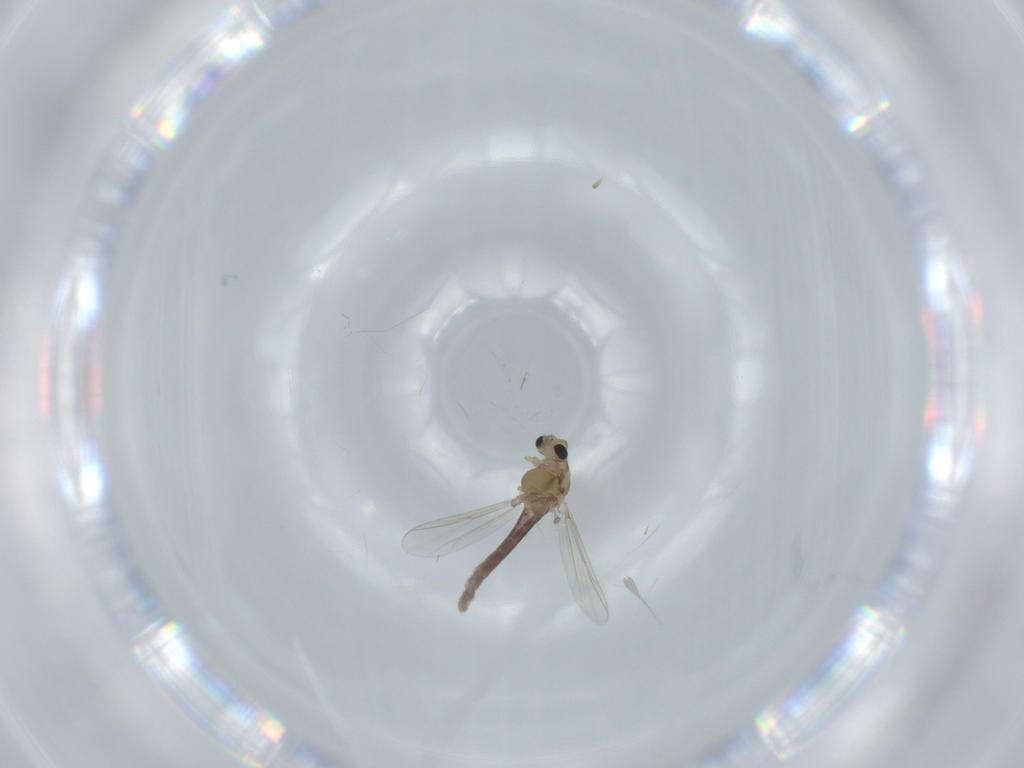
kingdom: Animalia
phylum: Arthropoda
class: Insecta
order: Diptera
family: Chironomidae
